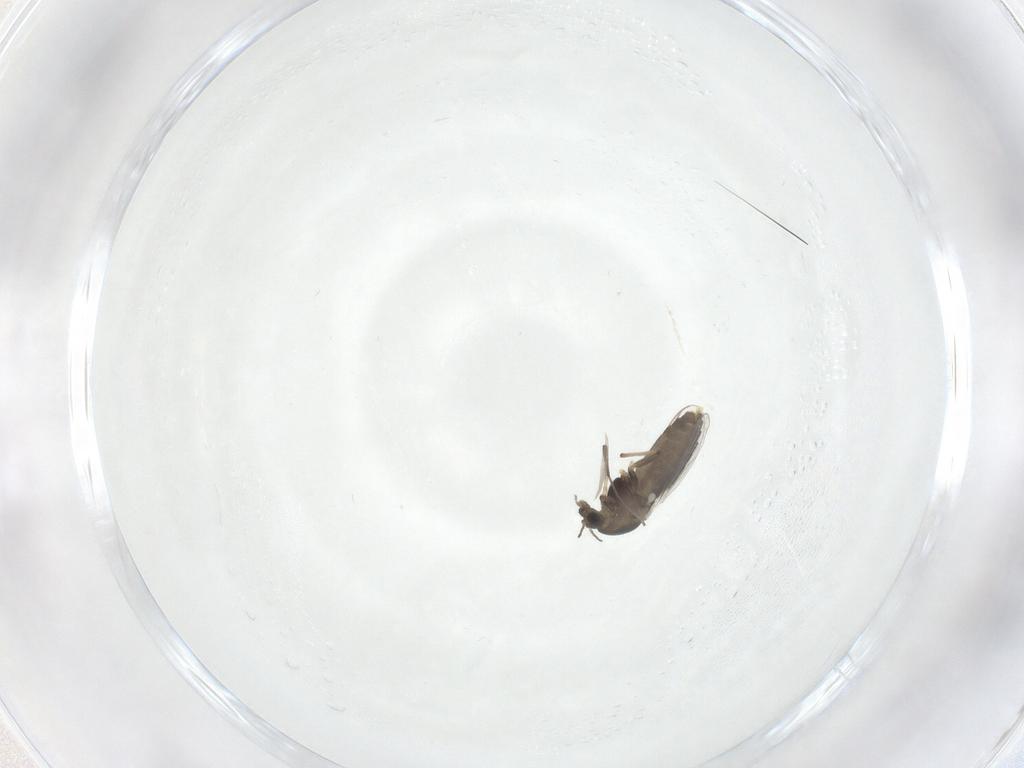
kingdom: Animalia
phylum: Arthropoda
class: Insecta
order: Diptera
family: Chironomidae
